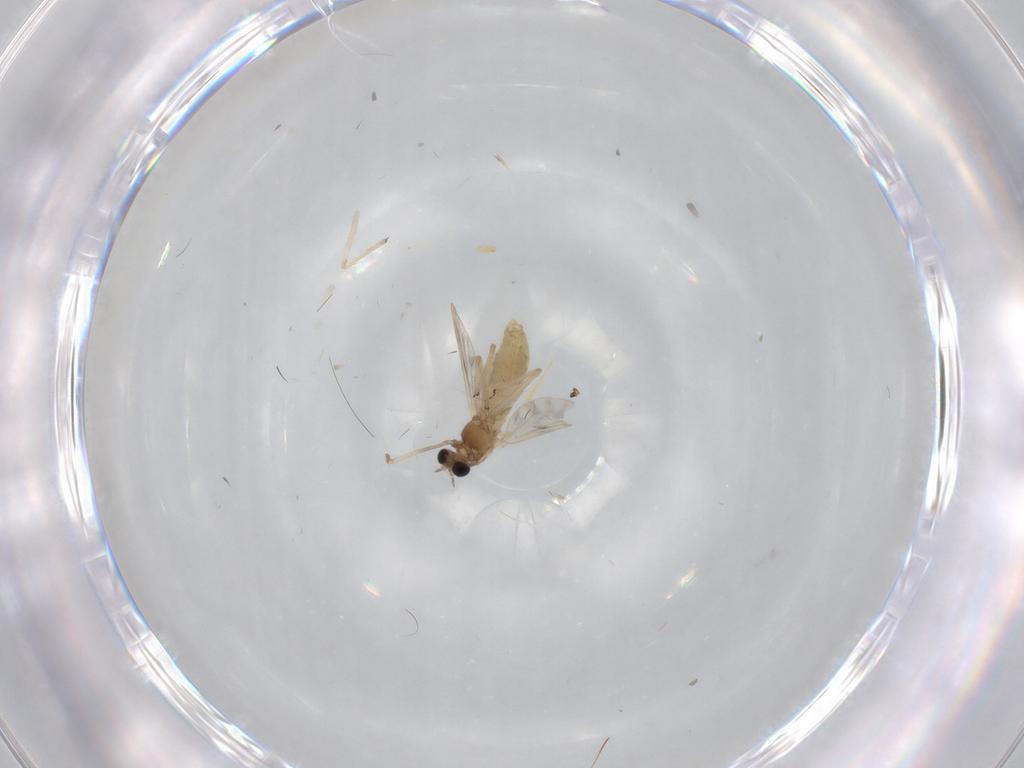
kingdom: Animalia
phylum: Arthropoda
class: Insecta
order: Diptera
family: Chironomidae
